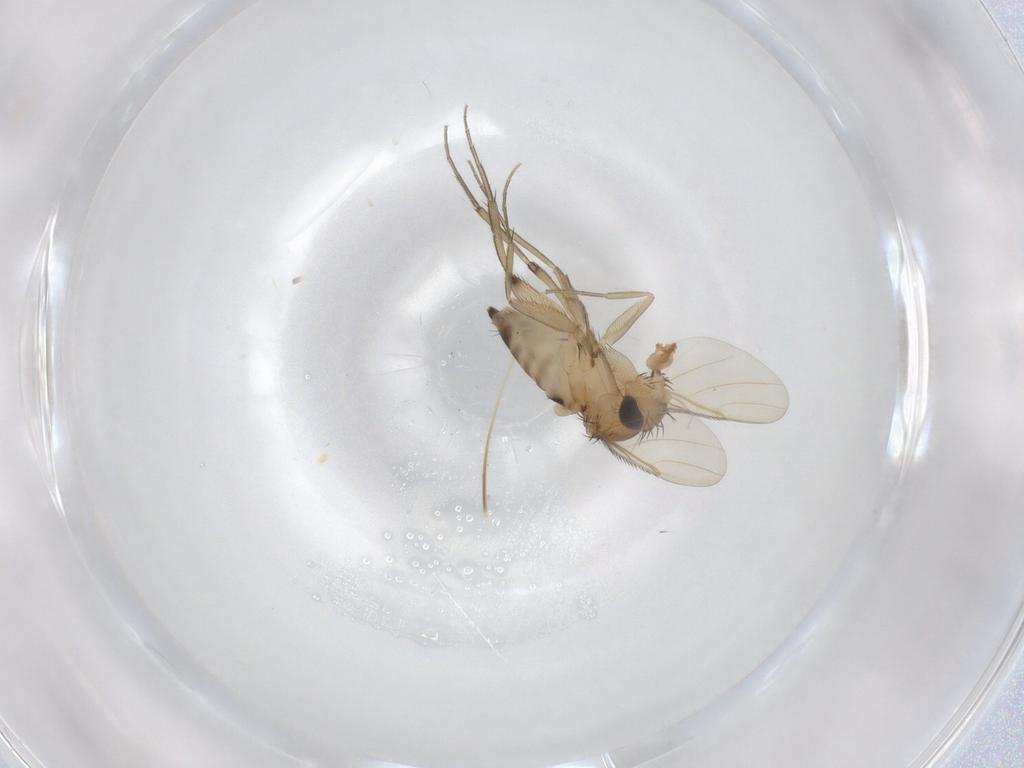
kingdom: Animalia
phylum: Arthropoda
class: Insecta
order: Diptera
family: Phoridae
